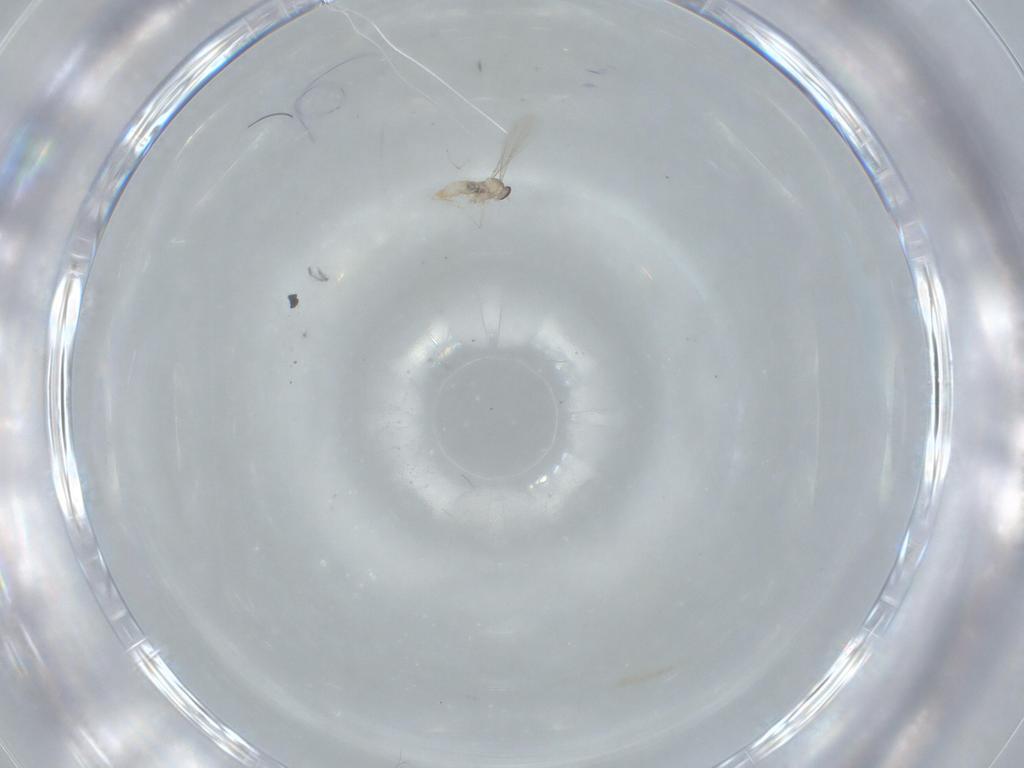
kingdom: Animalia
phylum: Arthropoda
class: Insecta
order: Diptera
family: Cecidomyiidae
